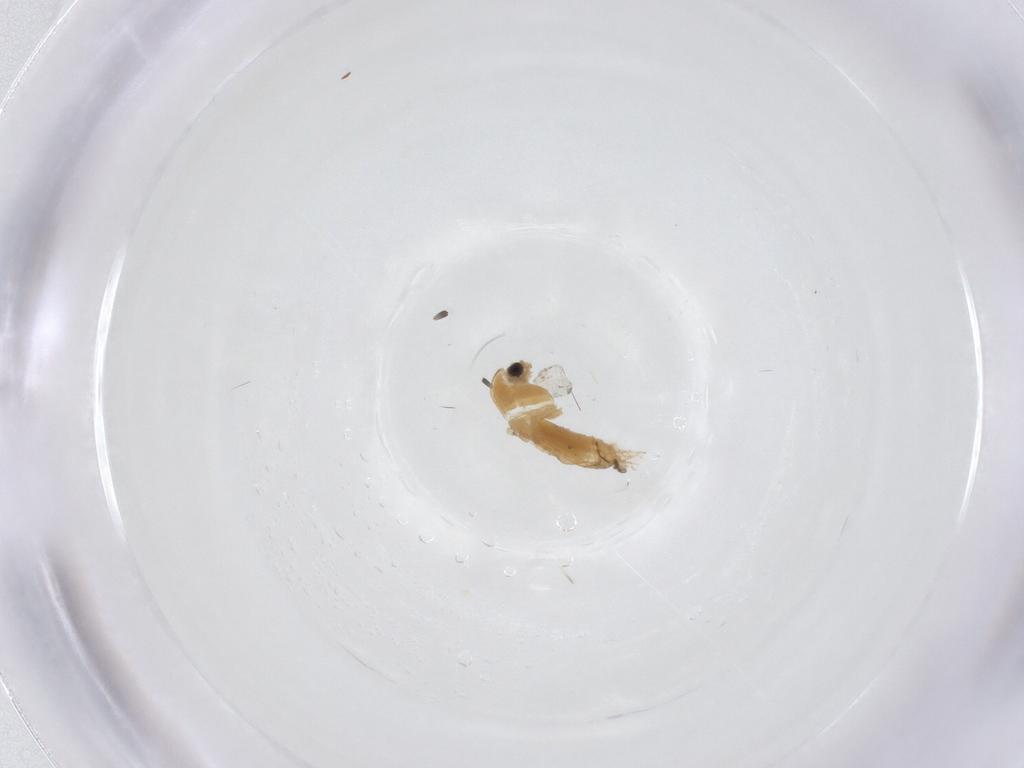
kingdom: Animalia
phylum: Arthropoda
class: Insecta
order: Diptera
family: Chironomidae
